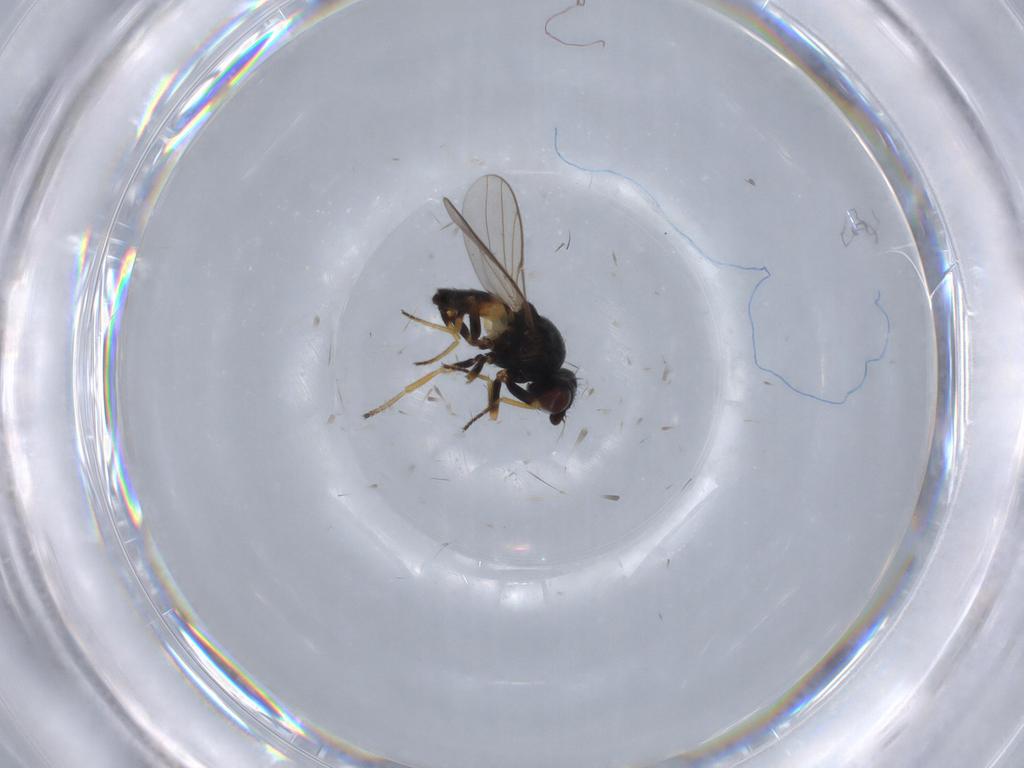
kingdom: Animalia
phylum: Arthropoda
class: Insecta
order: Diptera
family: Chloropidae
